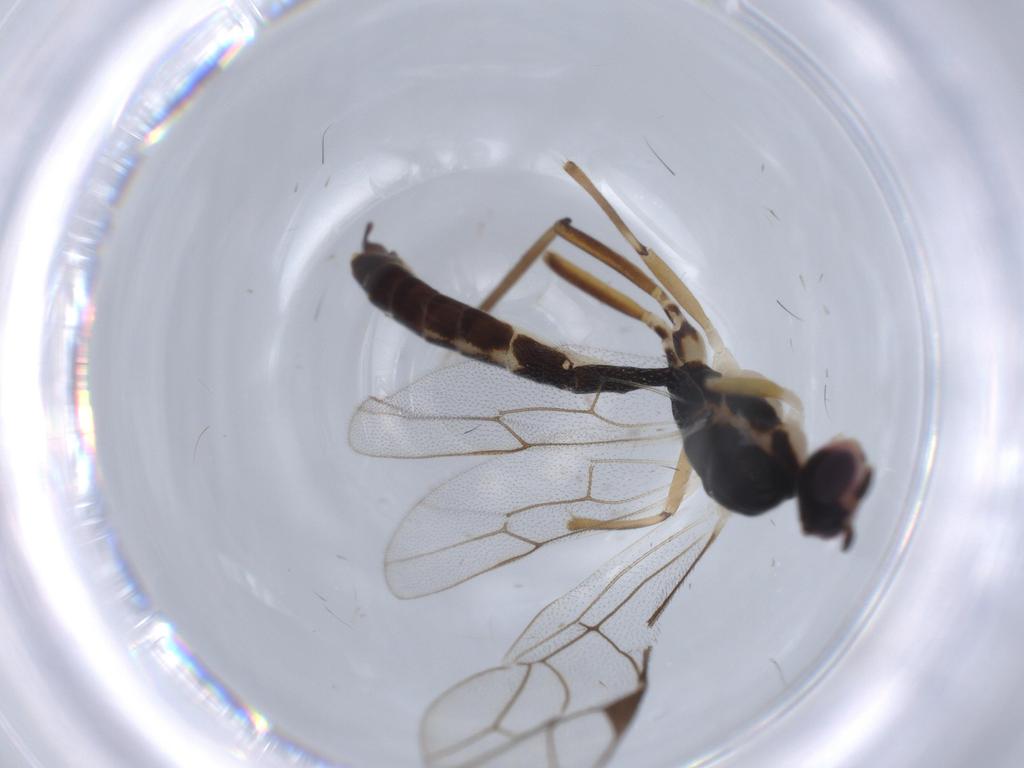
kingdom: Animalia
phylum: Arthropoda
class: Insecta
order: Hymenoptera
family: Ichneumonidae
